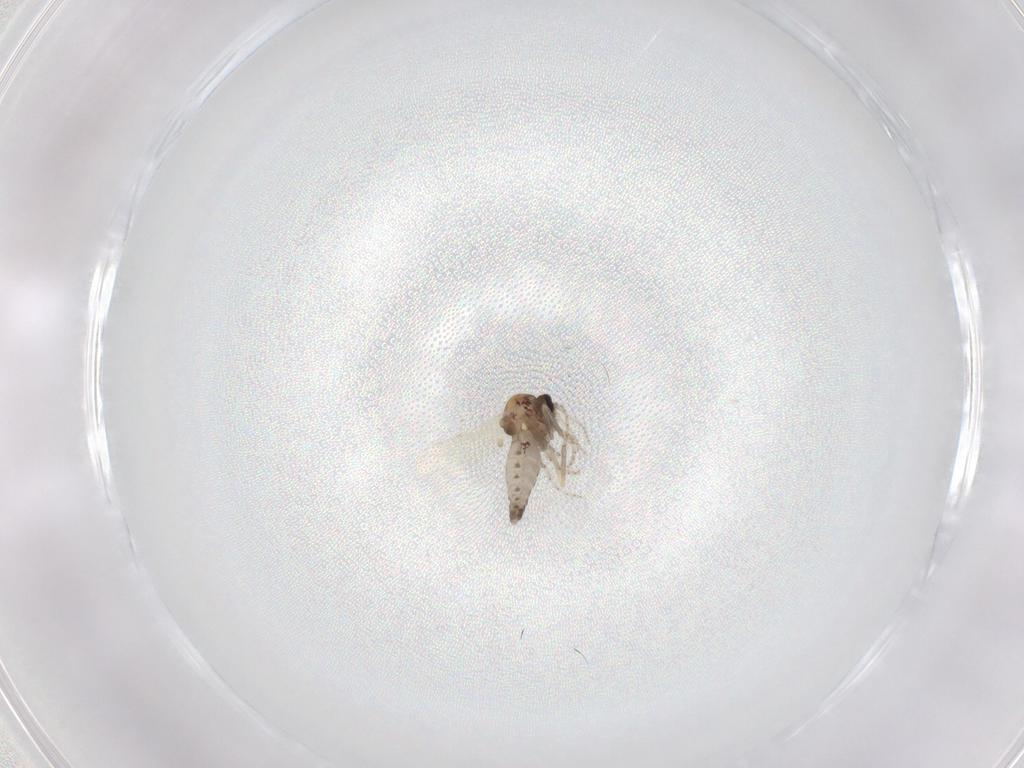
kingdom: Animalia
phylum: Arthropoda
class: Insecta
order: Diptera
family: Ceratopogonidae
